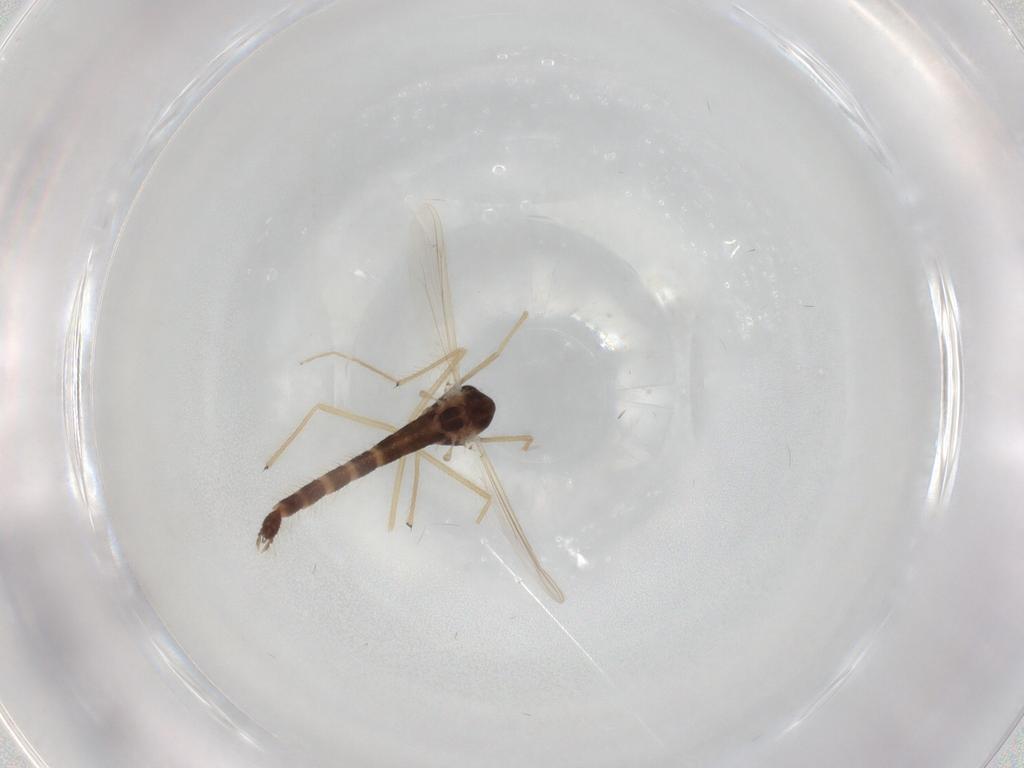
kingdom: Animalia
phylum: Arthropoda
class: Insecta
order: Diptera
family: Chironomidae
